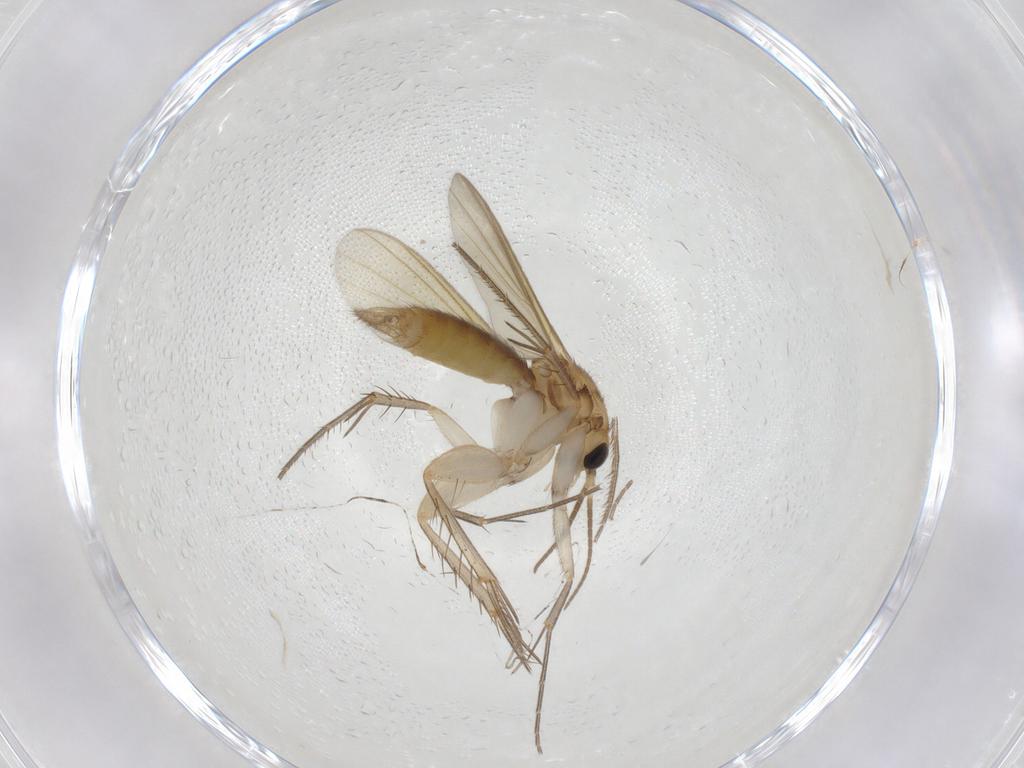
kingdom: Animalia
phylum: Arthropoda
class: Insecta
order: Diptera
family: Mycetophilidae
